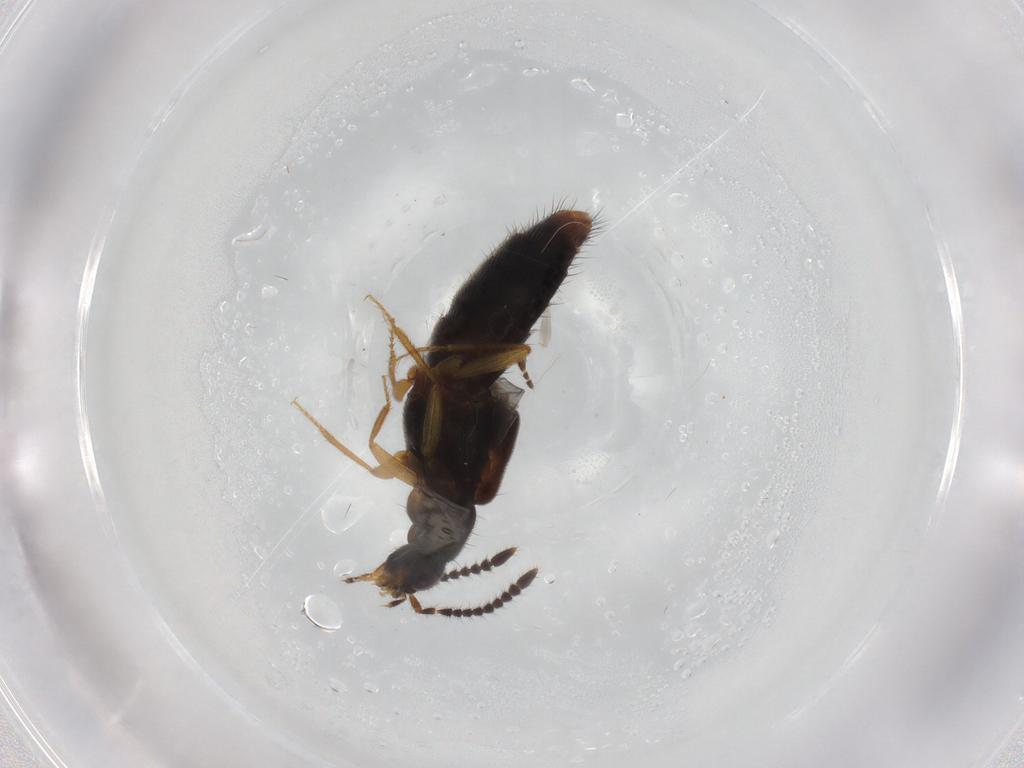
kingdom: Animalia
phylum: Arthropoda
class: Insecta
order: Coleoptera
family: Staphylinidae
